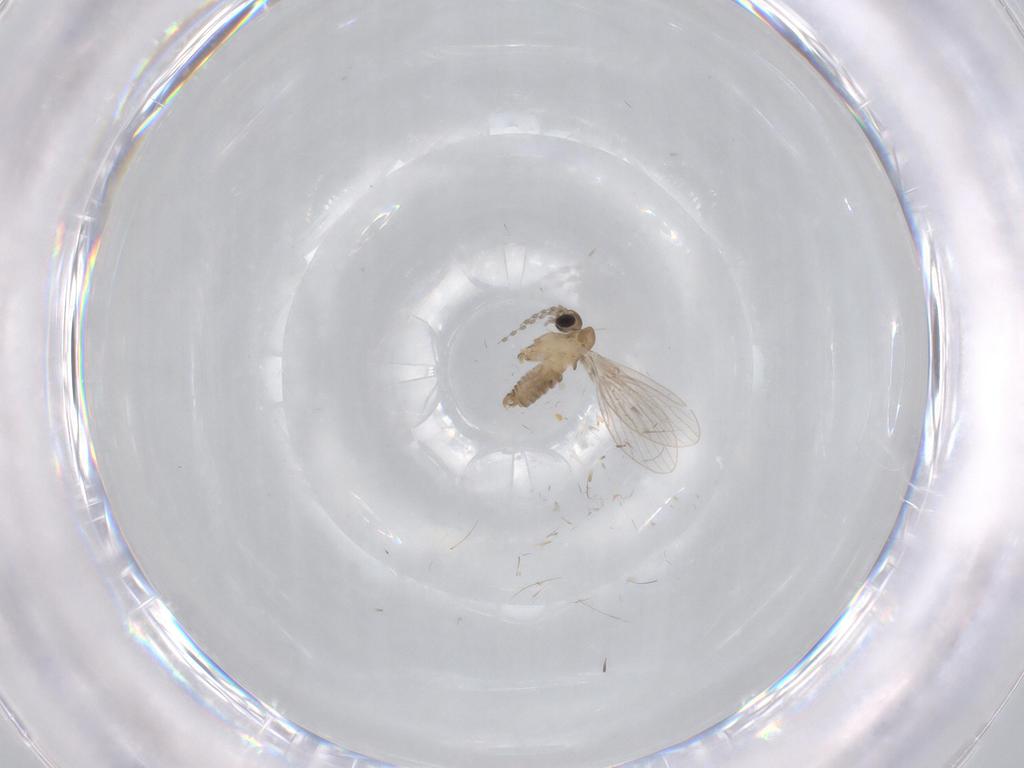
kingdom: Animalia
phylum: Arthropoda
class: Insecta
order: Diptera
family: Psychodidae
